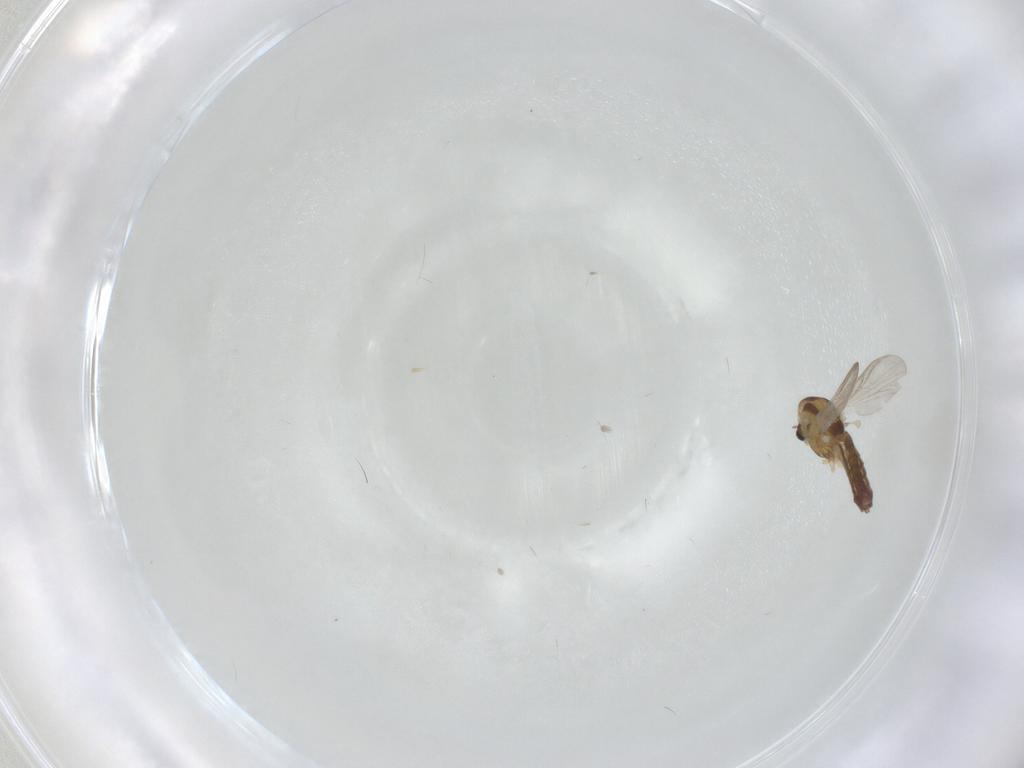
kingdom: Animalia
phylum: Arthropoda
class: Insecta
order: Diptera
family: Chironomidae
